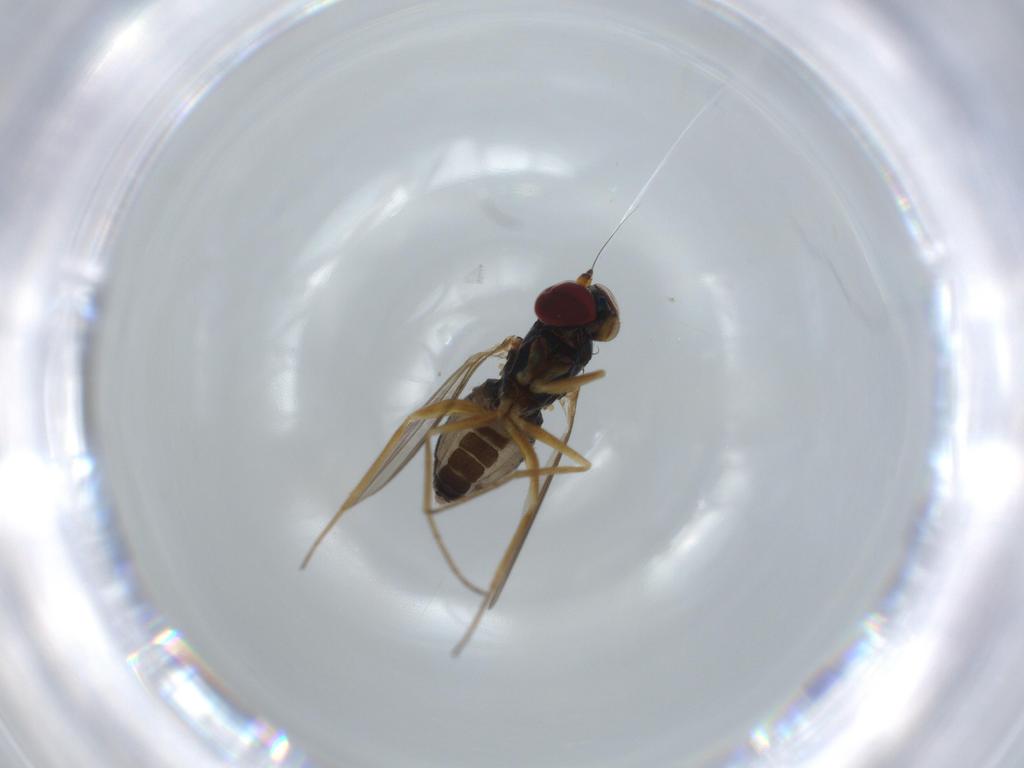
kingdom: Animalia
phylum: Arthropoda
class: Insecta
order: Diptera
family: Dolichopodidae
